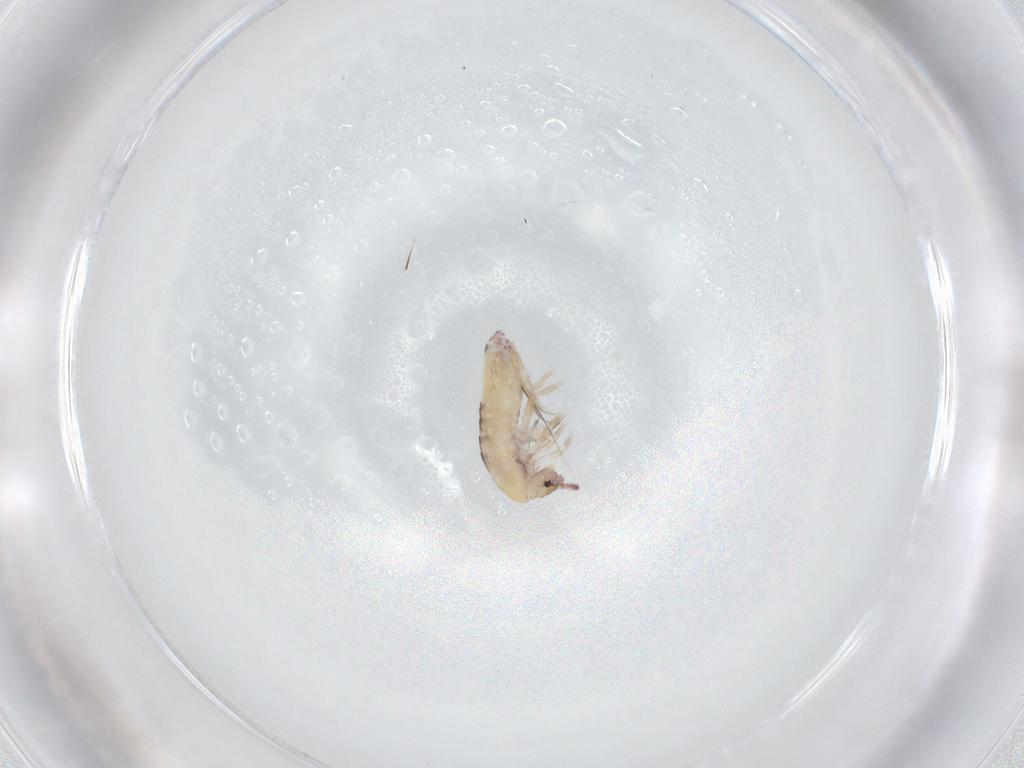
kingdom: Animalia
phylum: Arthropoda
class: Collembola
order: Entomobryomorpha
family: Entomobryidae
